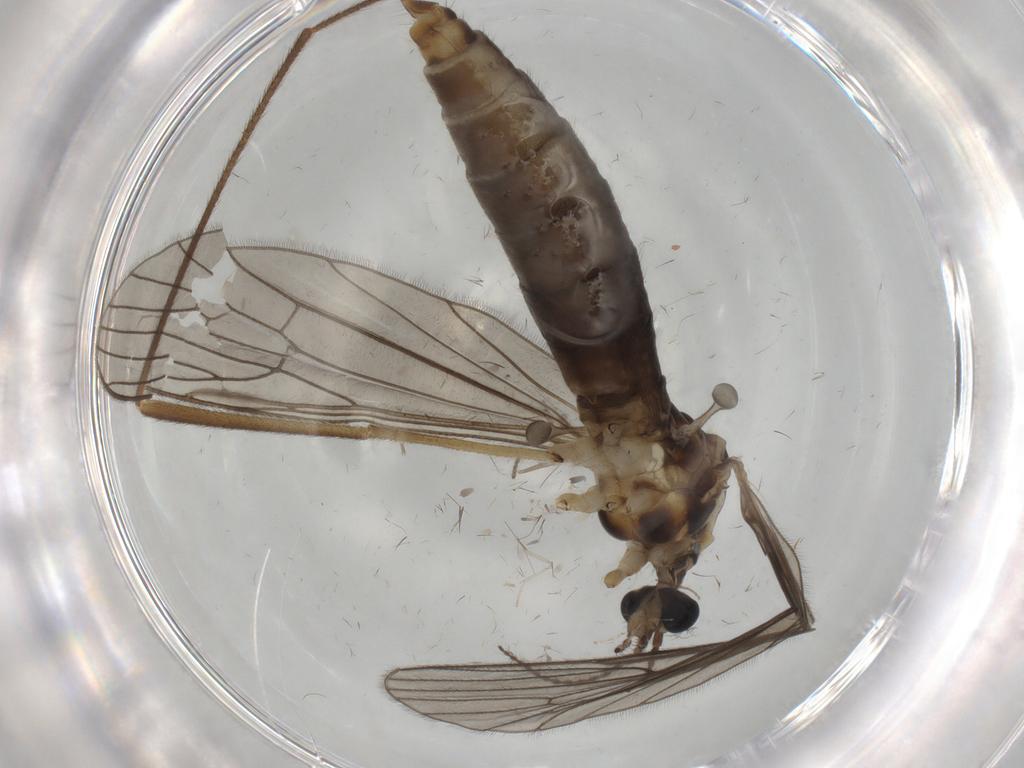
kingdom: Animalia
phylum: Arthropoda
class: Insecta
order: Diptera
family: Limoniidae
